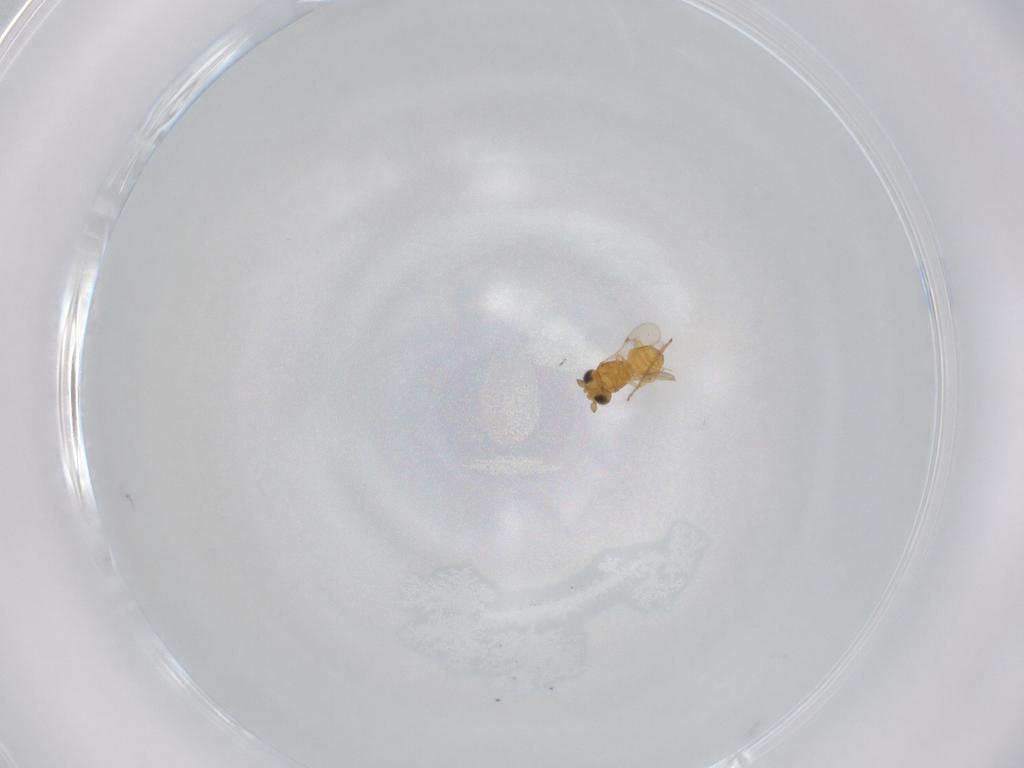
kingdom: Animalia
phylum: Arthropoda
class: Insecta
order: Hymenoptera
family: Scelionidae
